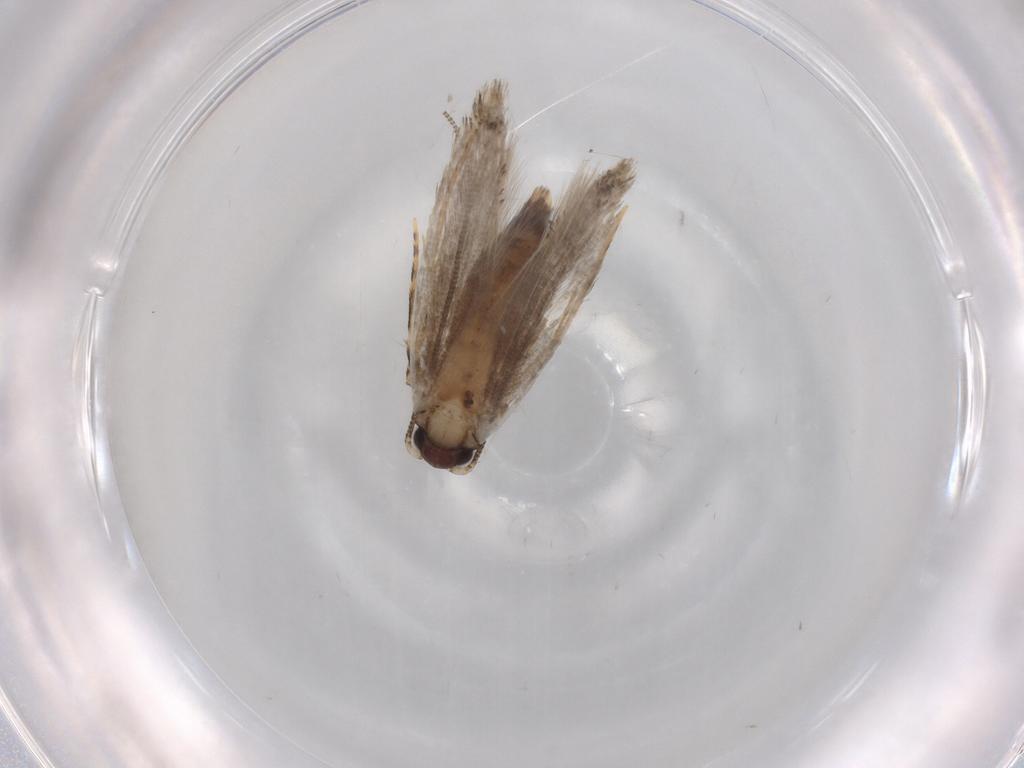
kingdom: Animalia
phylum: Arthropoda
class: Insecta
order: Lepidoptera
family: Autostichidae
